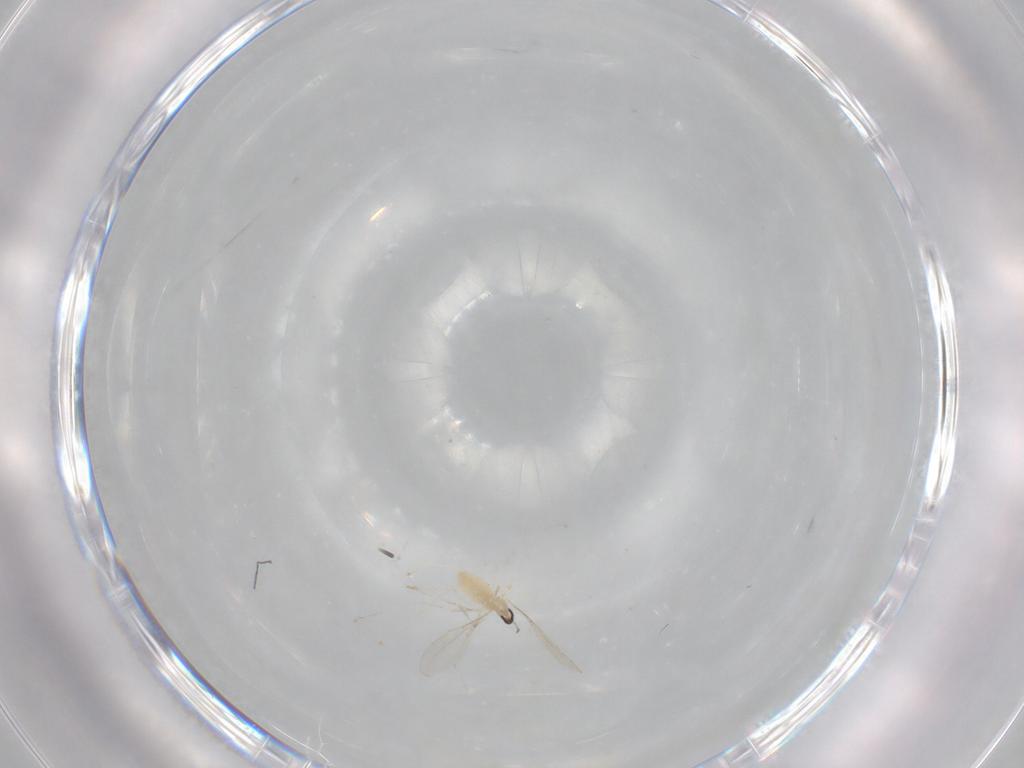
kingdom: Animalia
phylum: Arthropoda
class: Insecta
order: Diptera
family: Cecidomyiidae
